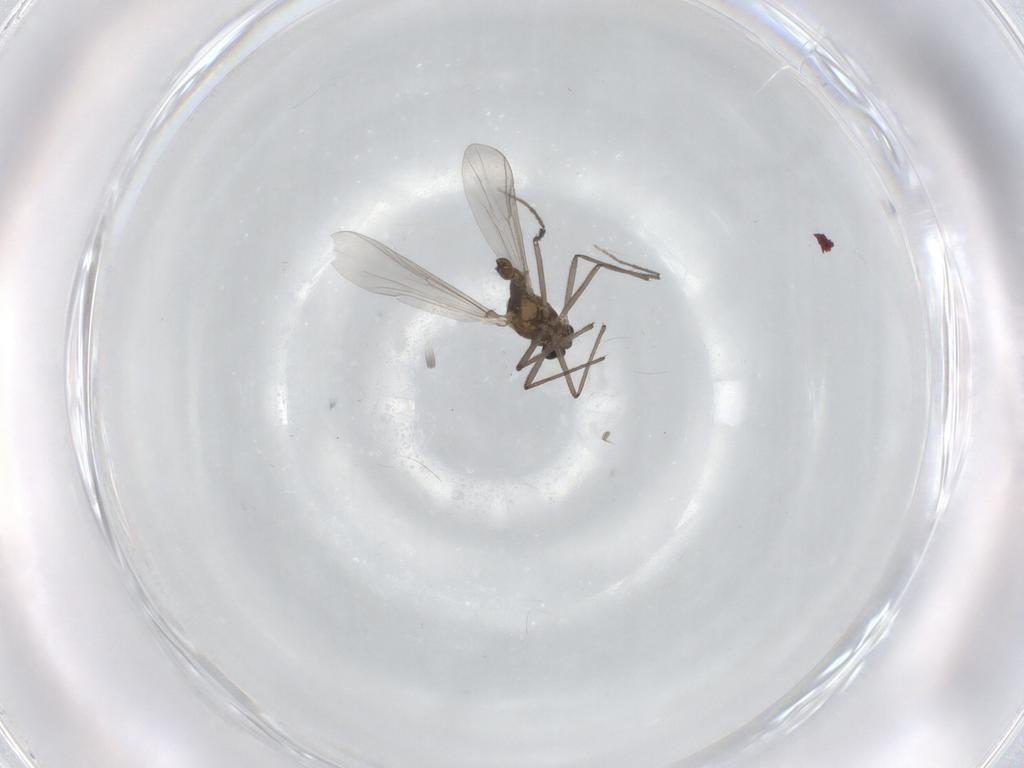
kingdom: Animalia
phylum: Arthropoda
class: Insecta
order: Diptera
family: Chironomidae
